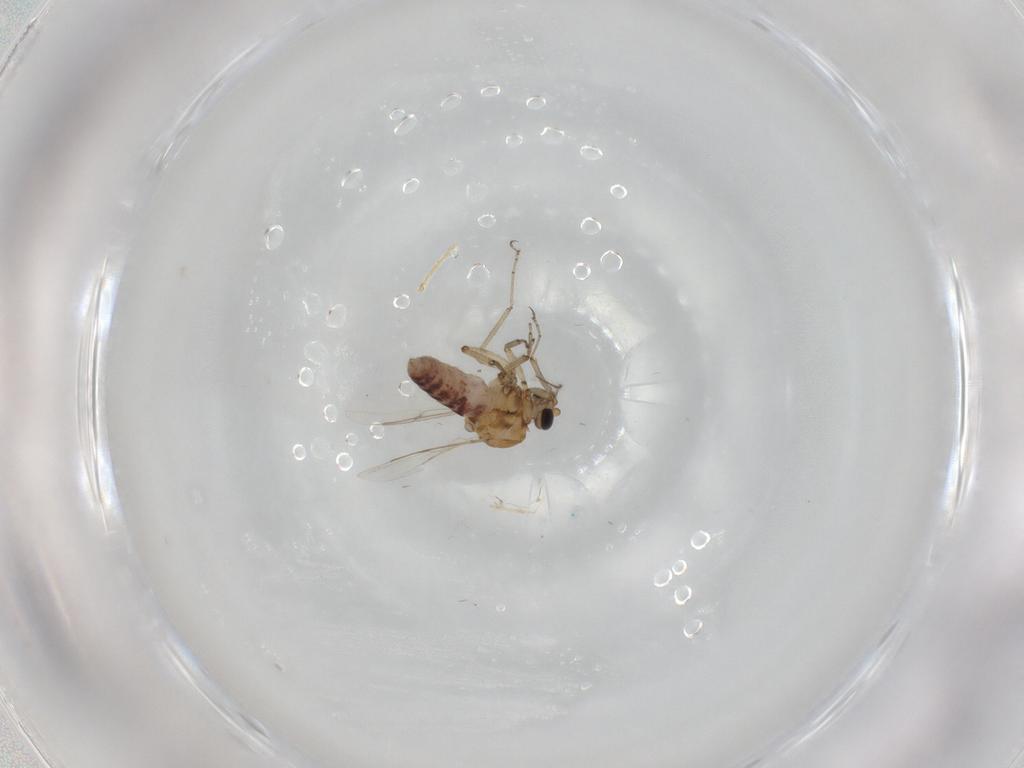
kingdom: Animalia
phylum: Arthropoda
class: Insecta
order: Diptera
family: Ceratopogonidae
